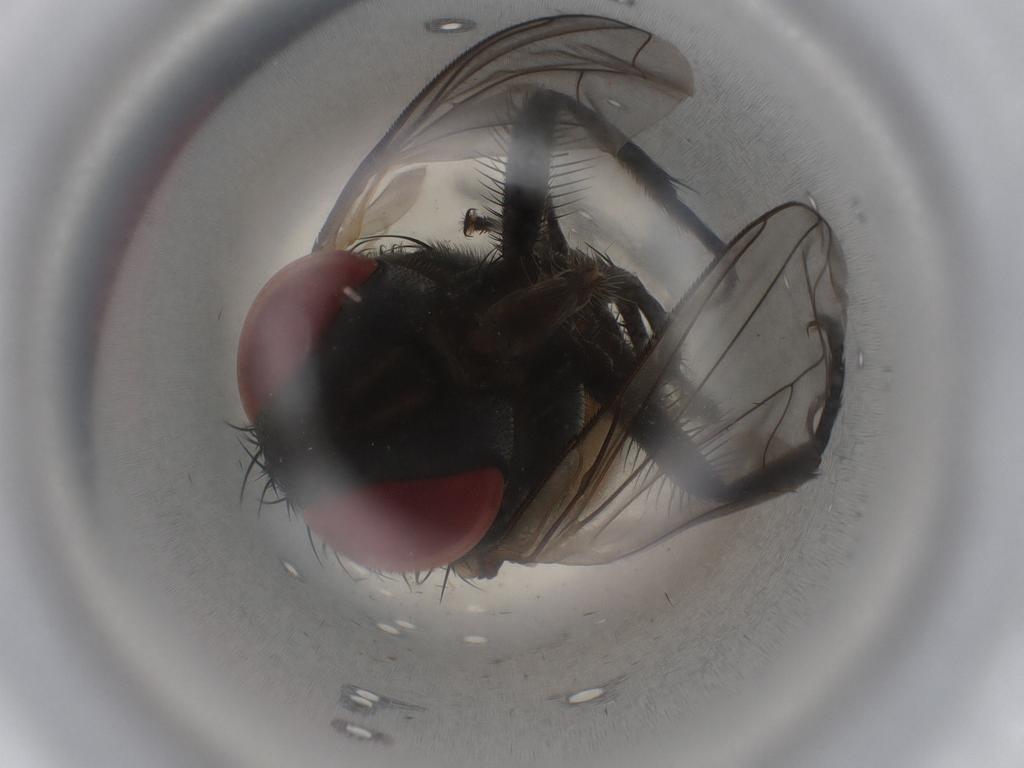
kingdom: Animalia
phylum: Arthropoda
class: Insecta
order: Diptera
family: Muscidae
